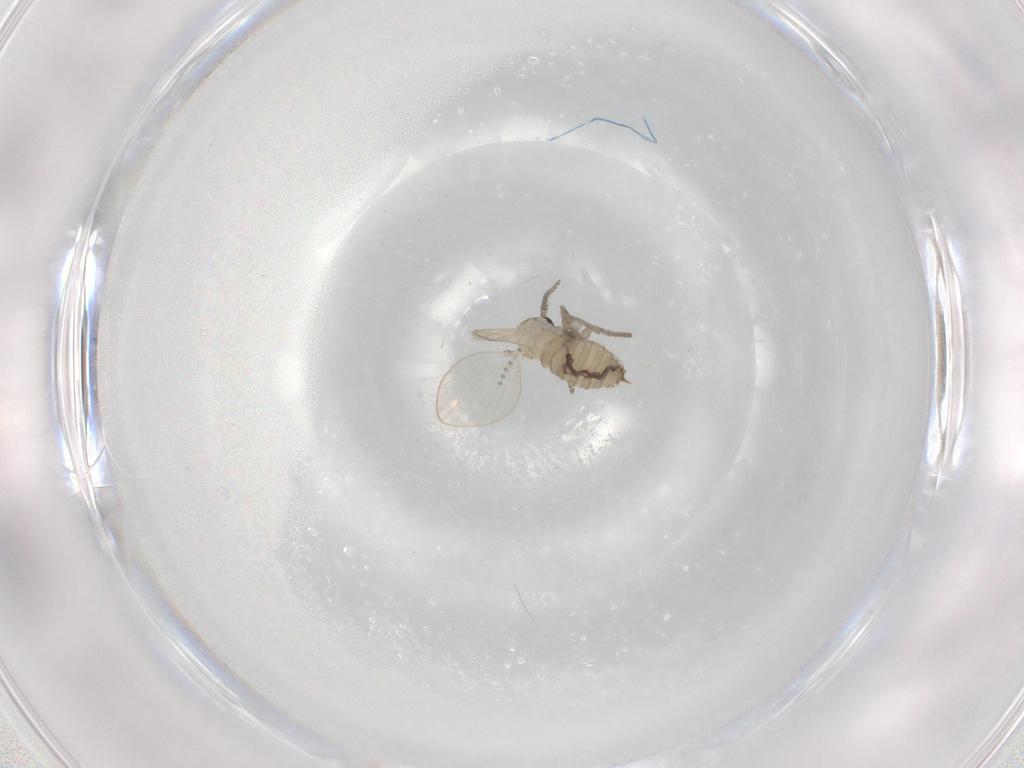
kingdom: Animalia
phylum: Arthropoda
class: Insecta
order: Diptera
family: Psychodidae
